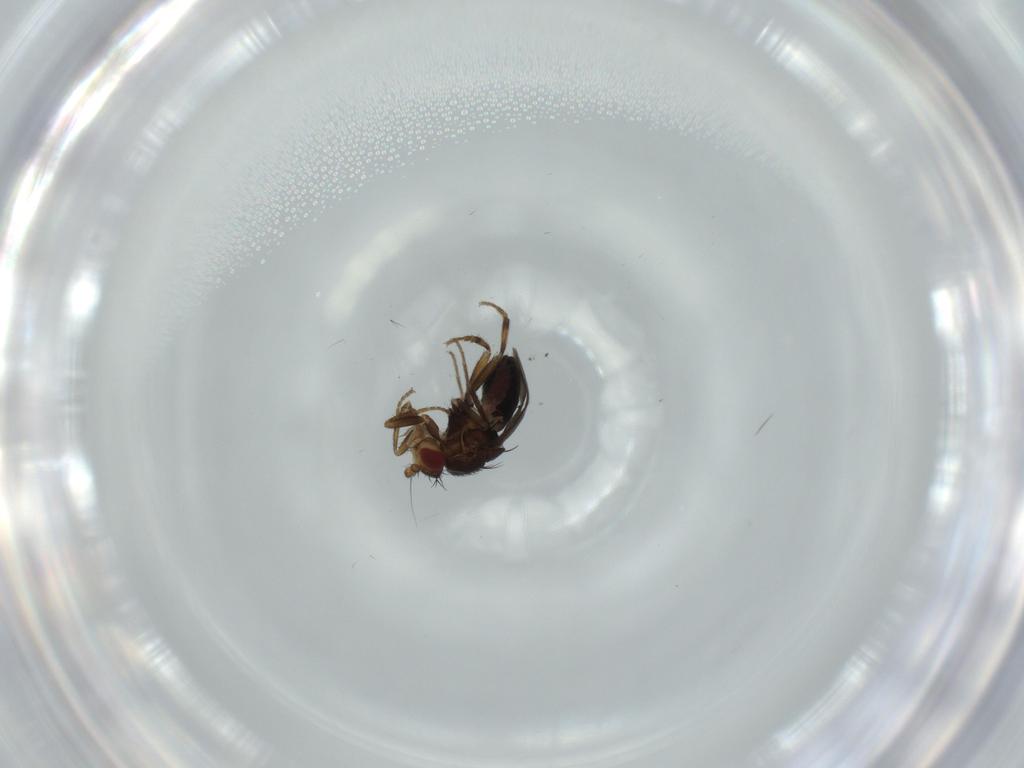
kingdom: Animalia
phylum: Arthropoda
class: Insecta
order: Diptera
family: Sphaeroceridae
